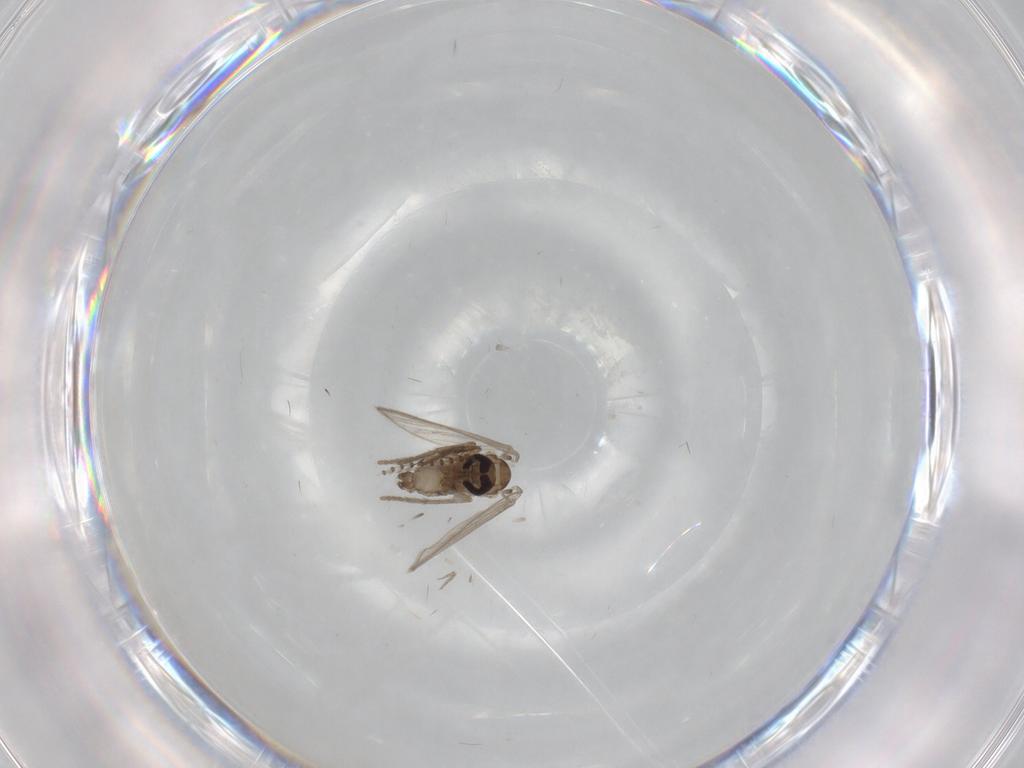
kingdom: Animalia
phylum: Arthropoda
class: Insecta
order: Diptera
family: Psychodidae
